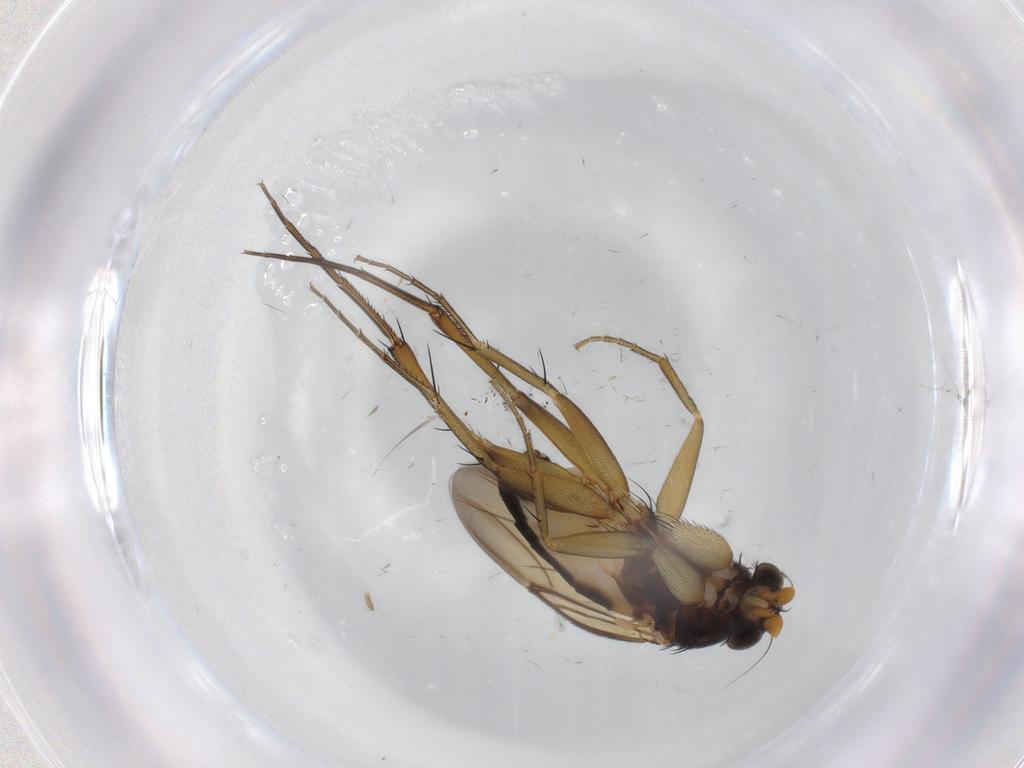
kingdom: Animalia
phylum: Arthropoda
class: Insecta
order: Diptera
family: Phoridae
